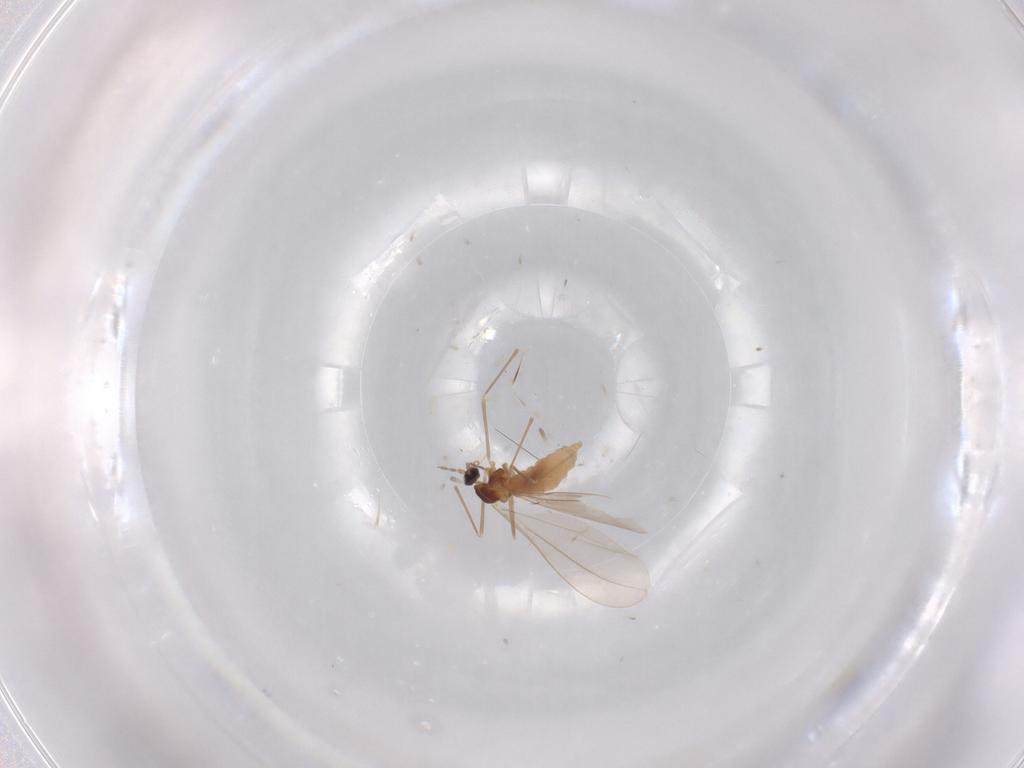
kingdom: Animalia
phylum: Arthropoda
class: Insecta
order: Diptera
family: Cecidomyiidae
